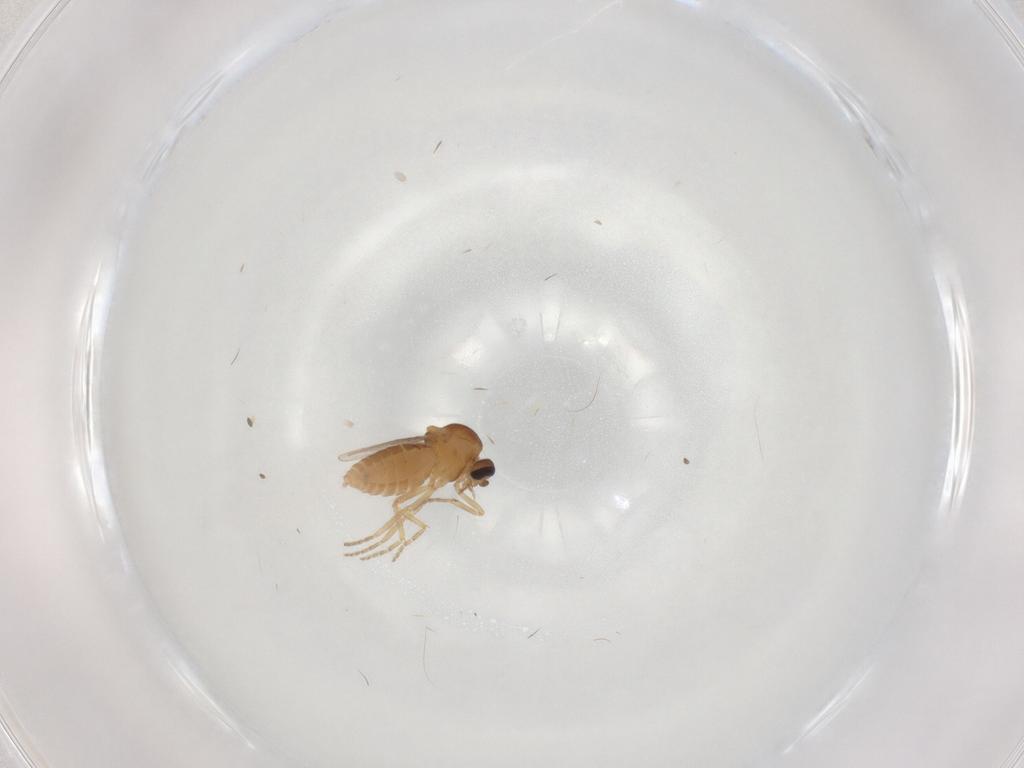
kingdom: Animalia
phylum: Arthropoda
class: Insecta
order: Diptera
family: Ceratopogonidae
